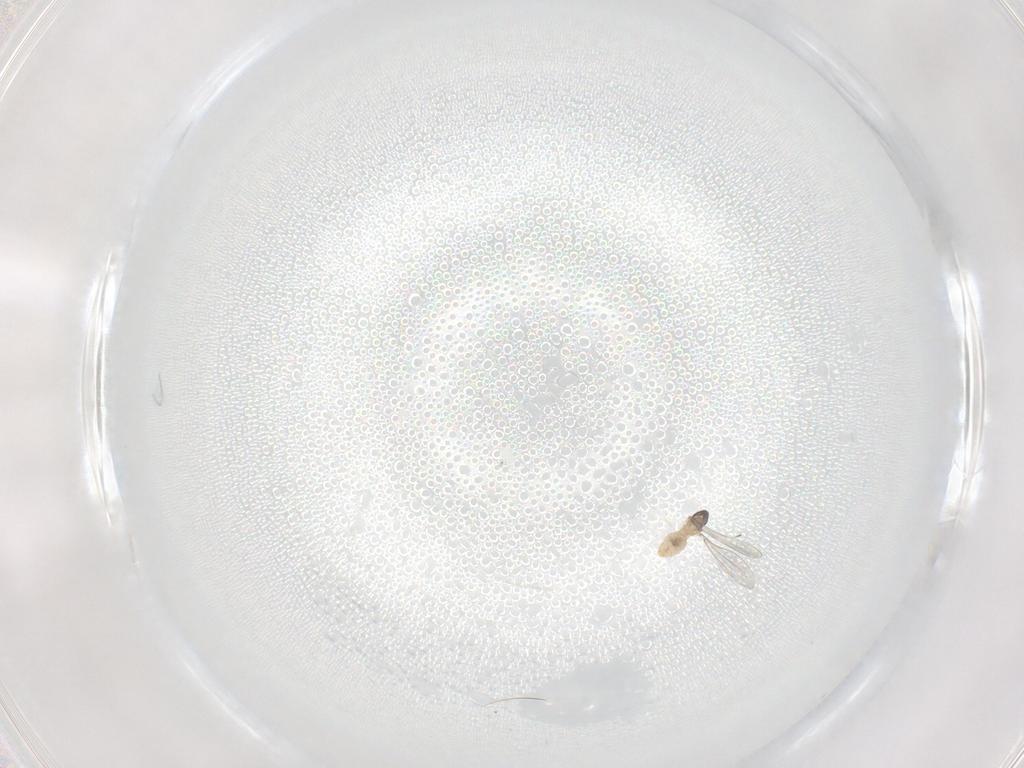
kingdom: Animalia
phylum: Arthropoda
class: Insecta
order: Diptera
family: Cecidomyiidae
